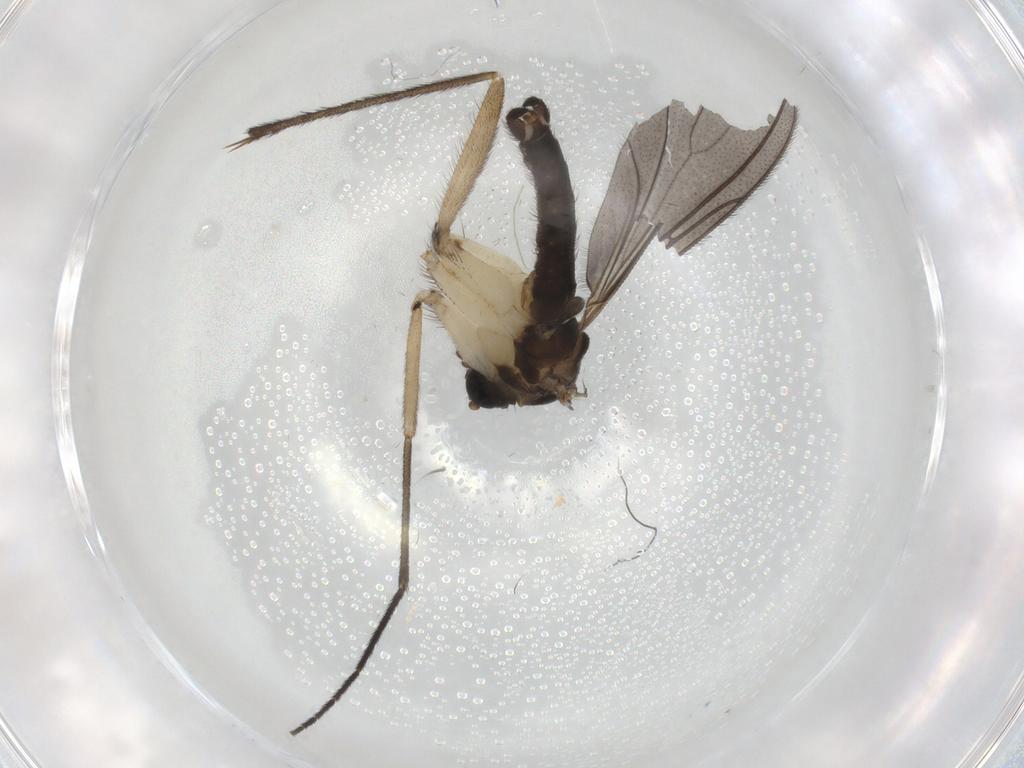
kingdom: Animalia
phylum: Arthropoda
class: Insecta
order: Diptera
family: Sciaridae
